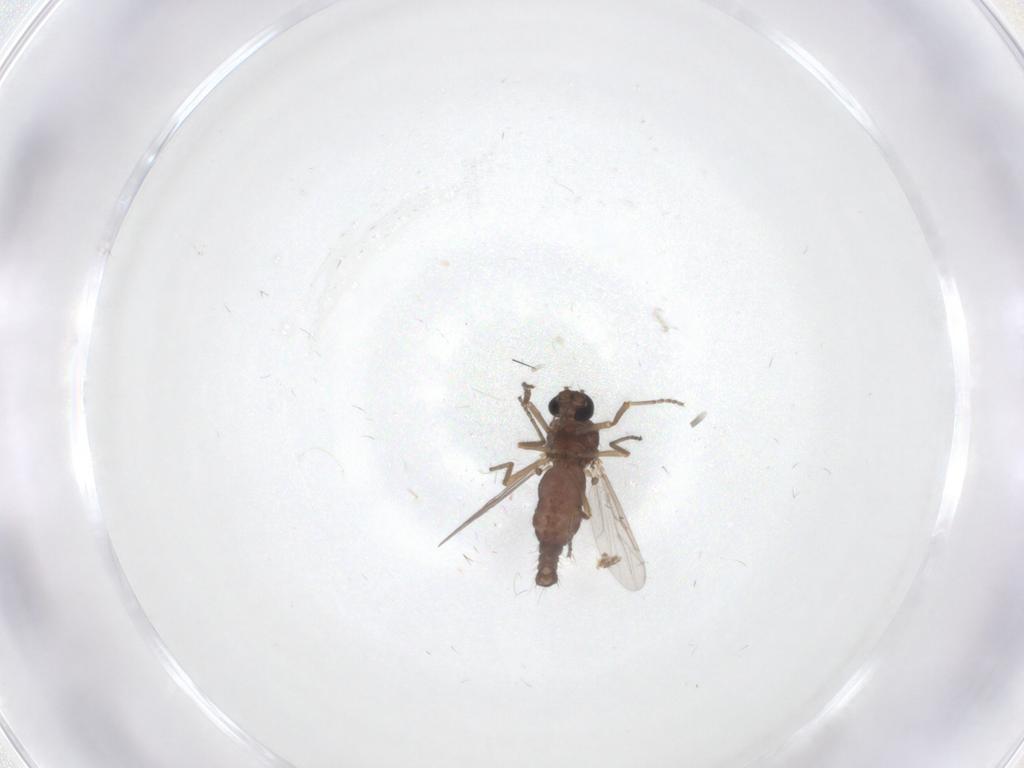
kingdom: Animalia
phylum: Arthropoda
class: Insecta
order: Diptera
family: Ceratopogonidae
